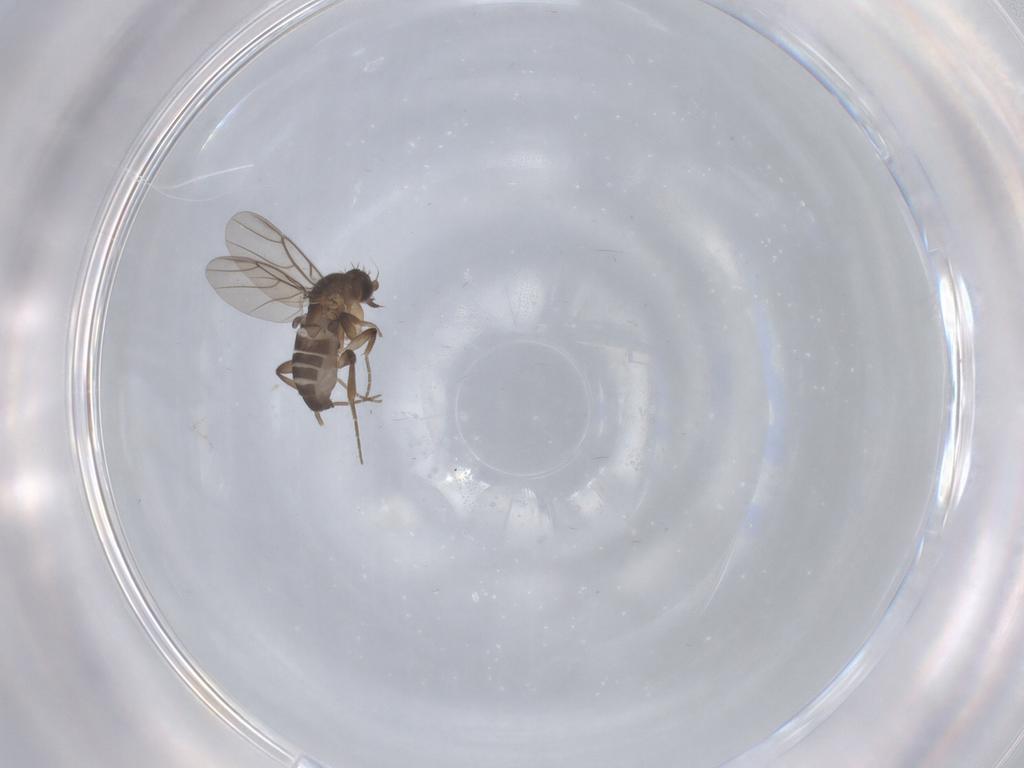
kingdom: Animalia
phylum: Arthropoda
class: Insecta
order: Diptera
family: Phoridae
